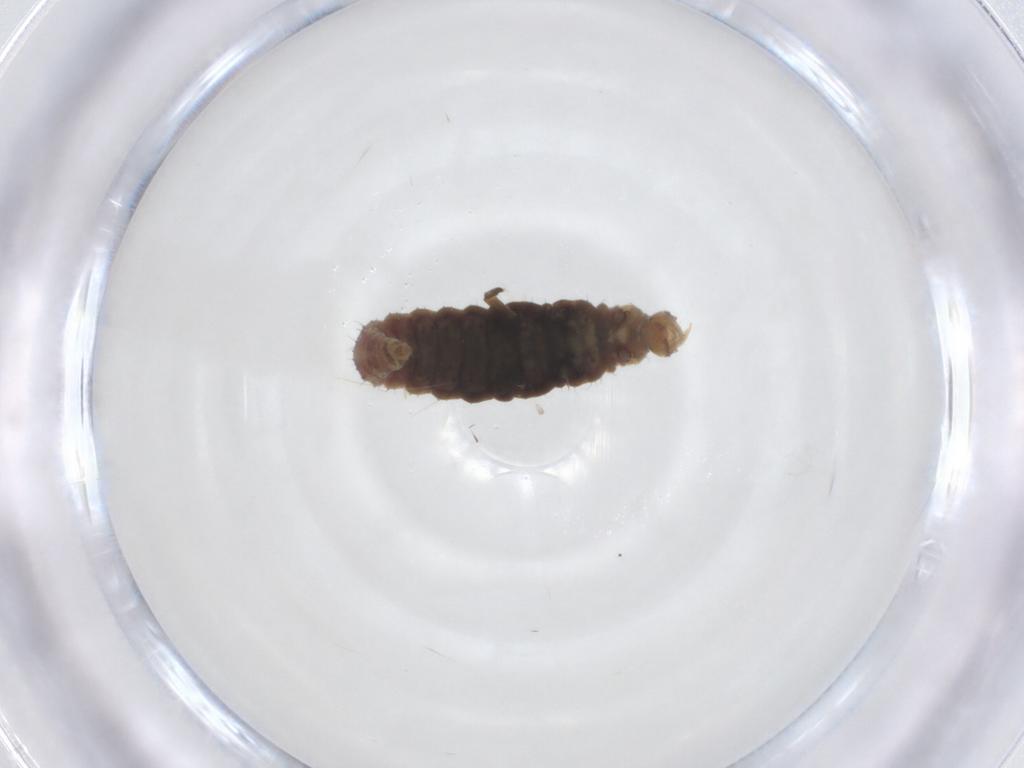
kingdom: Animalia
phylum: Arthropoda
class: Insecta
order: Neuroptera
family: Hemerobiidae
